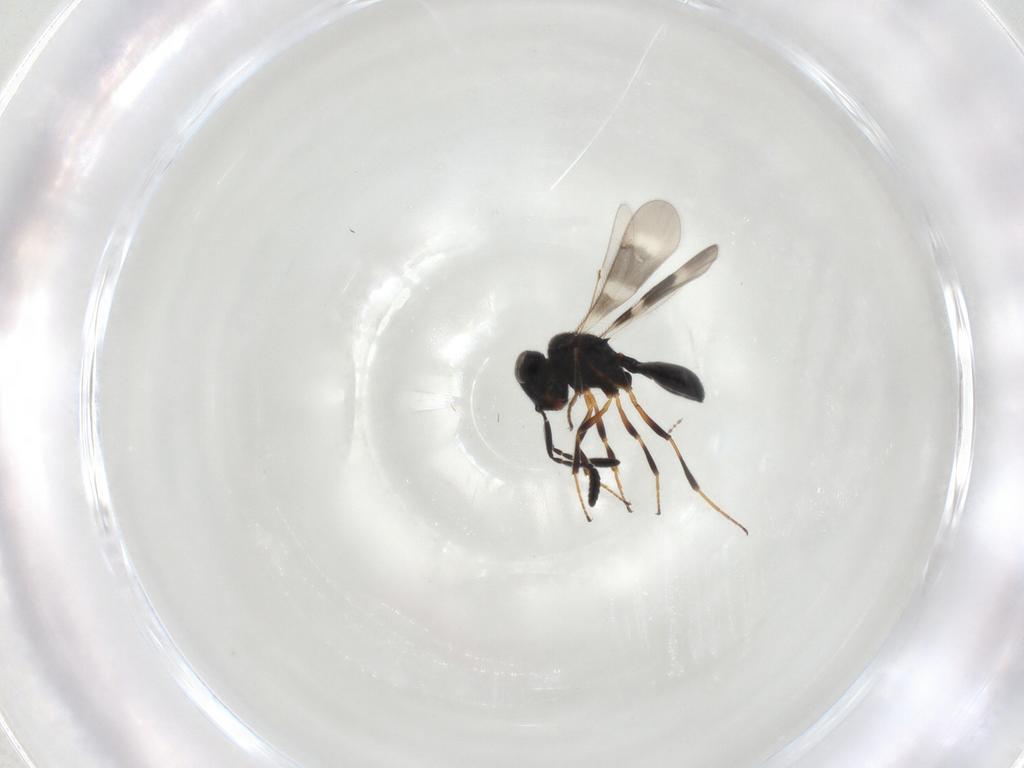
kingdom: Animalia
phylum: Arthropoda
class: Insecta
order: Hymenoptera
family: Scelionidae
